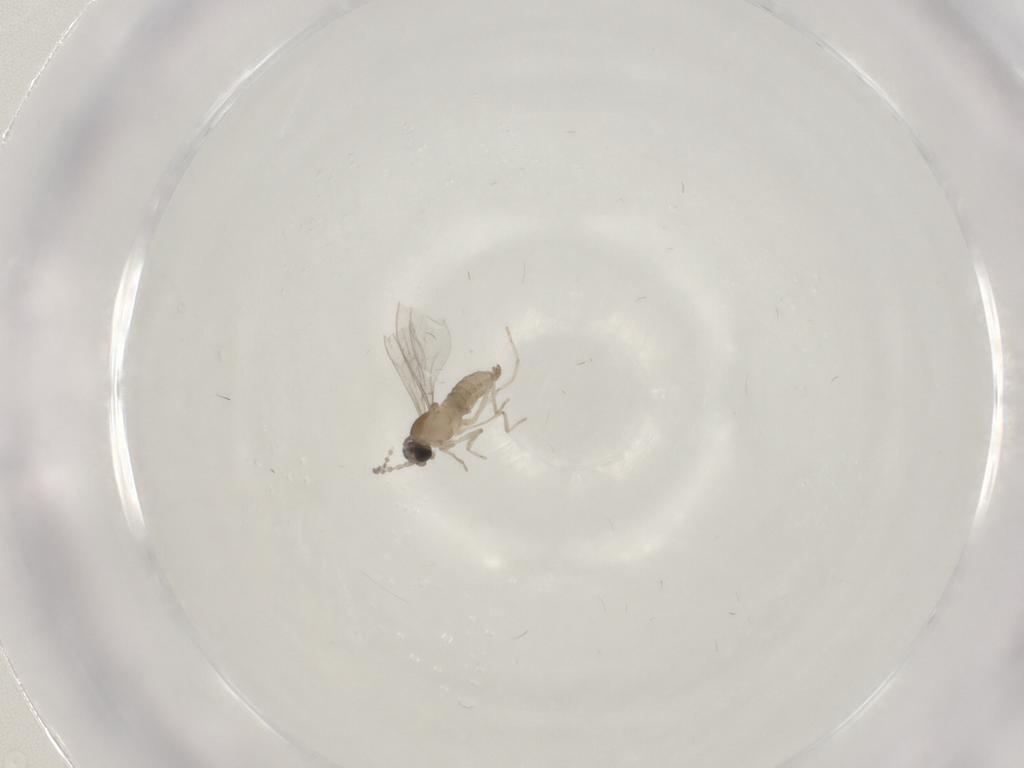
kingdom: Animalia
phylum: Arthropoda
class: Insecta
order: Diptera
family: Cecidomyiidae
